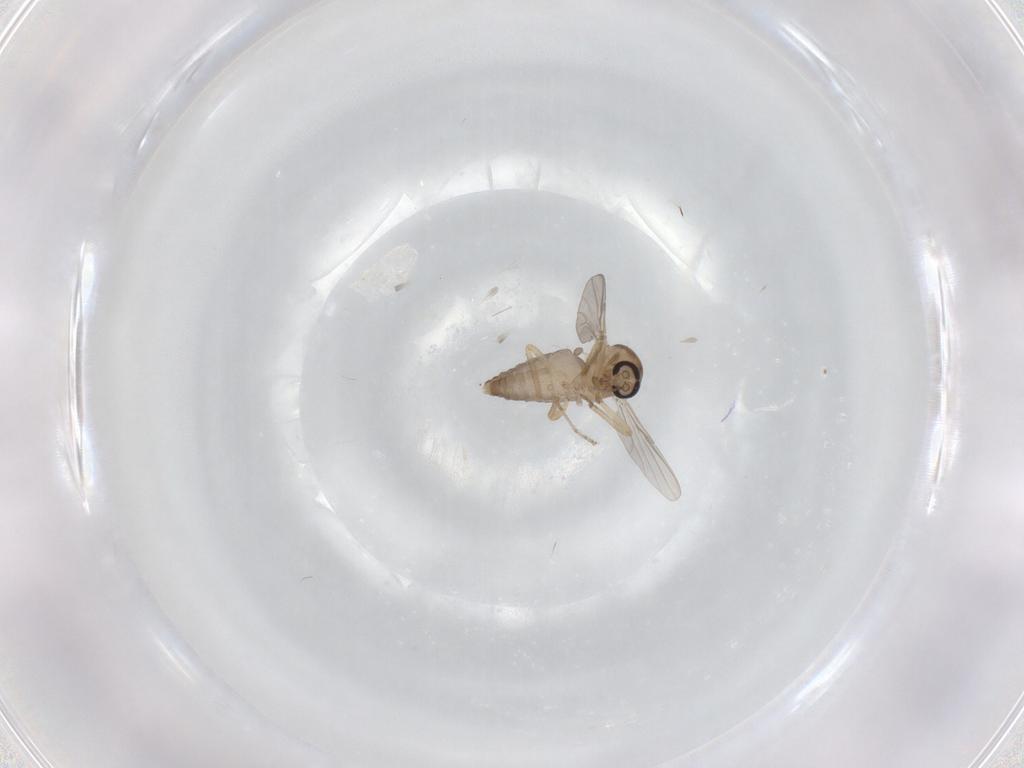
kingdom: Animalia
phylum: Arthropoda
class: Insecta
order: Diptera
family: Ceratopogonidae
